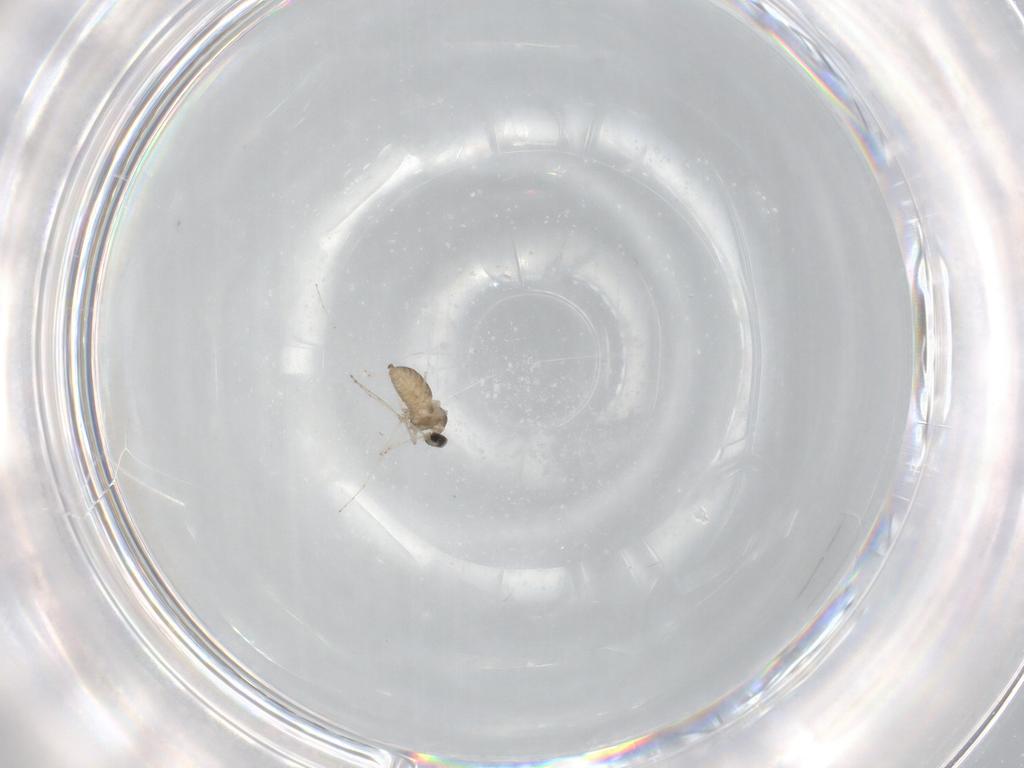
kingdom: Animalia
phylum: Arthropoda
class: Insecta
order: Diptera
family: Cecidomyiidae
